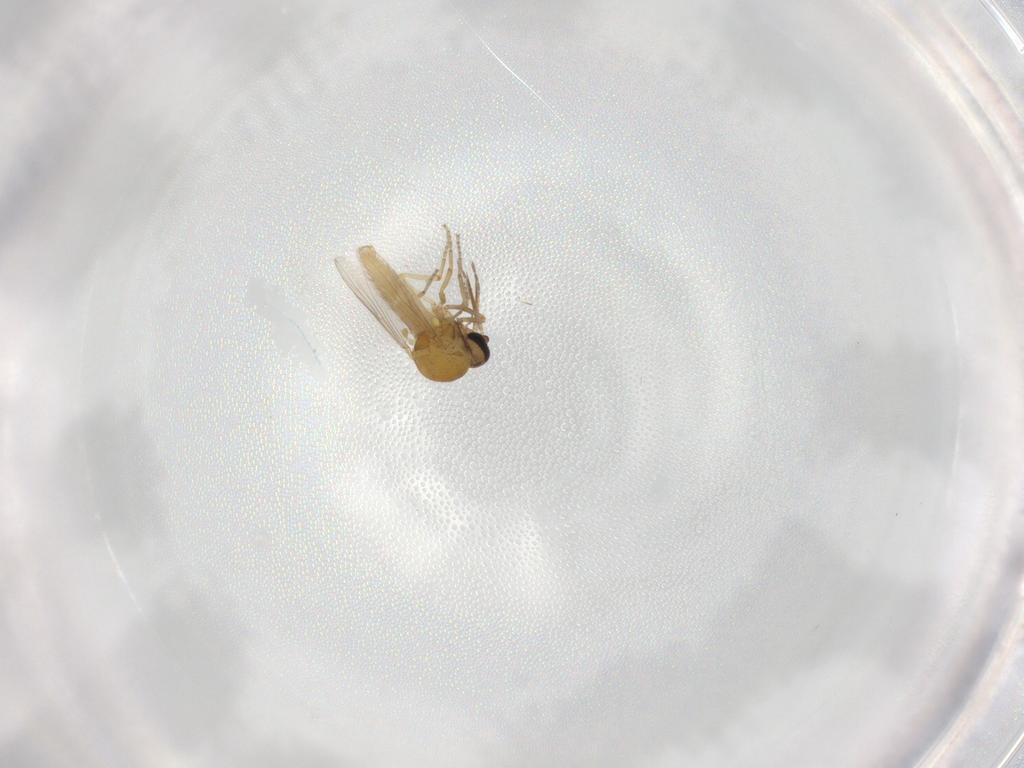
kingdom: Animalia
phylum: Arthropoda
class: Insecta
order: Diptera
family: Ceratopogonidae
